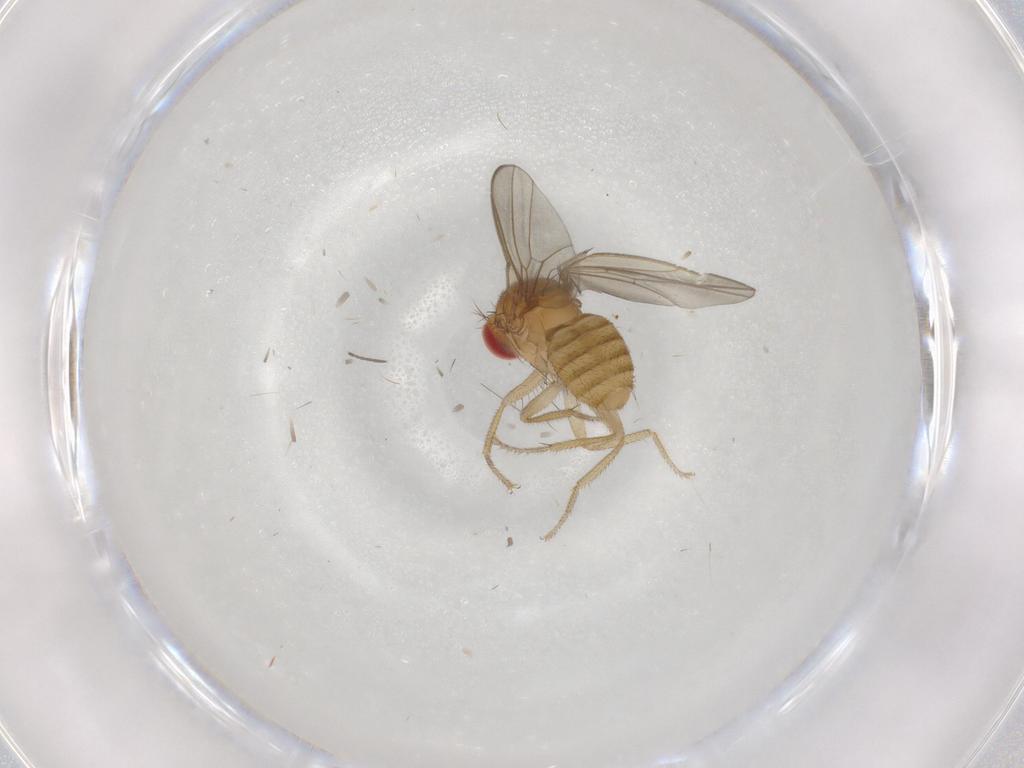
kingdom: Animalia
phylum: Arthropoda
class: Insecta
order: Diptera
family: Drosophilidae
